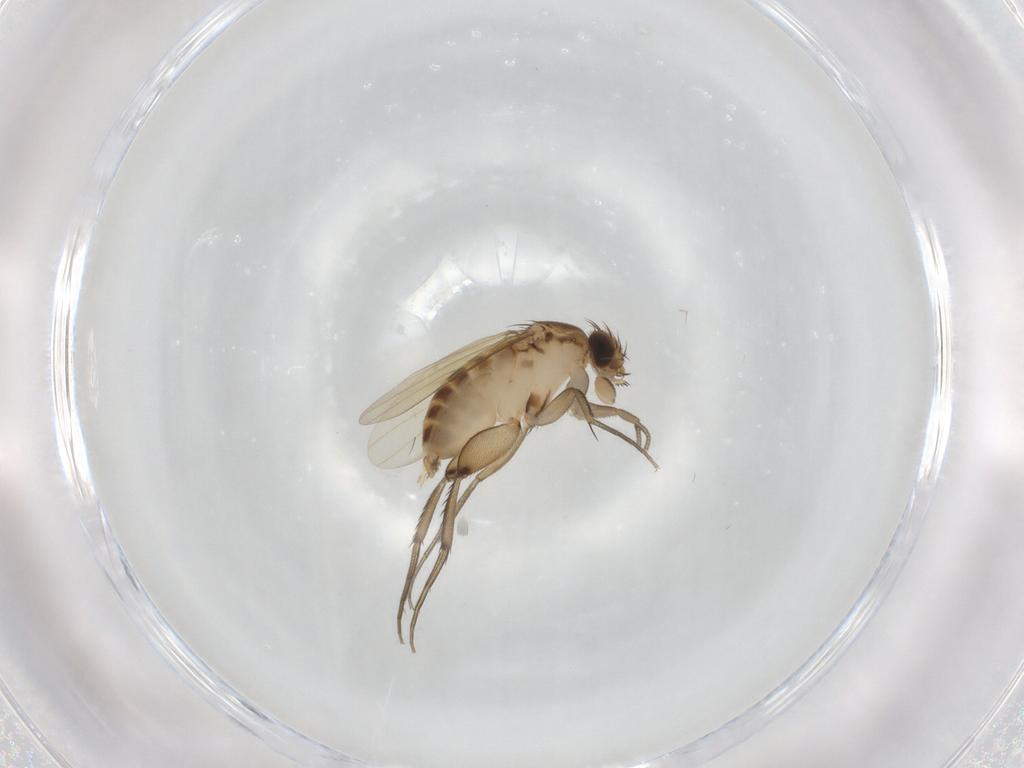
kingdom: Animalia
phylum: Arthropoda
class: Insecta
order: Diptera
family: Phoridae
